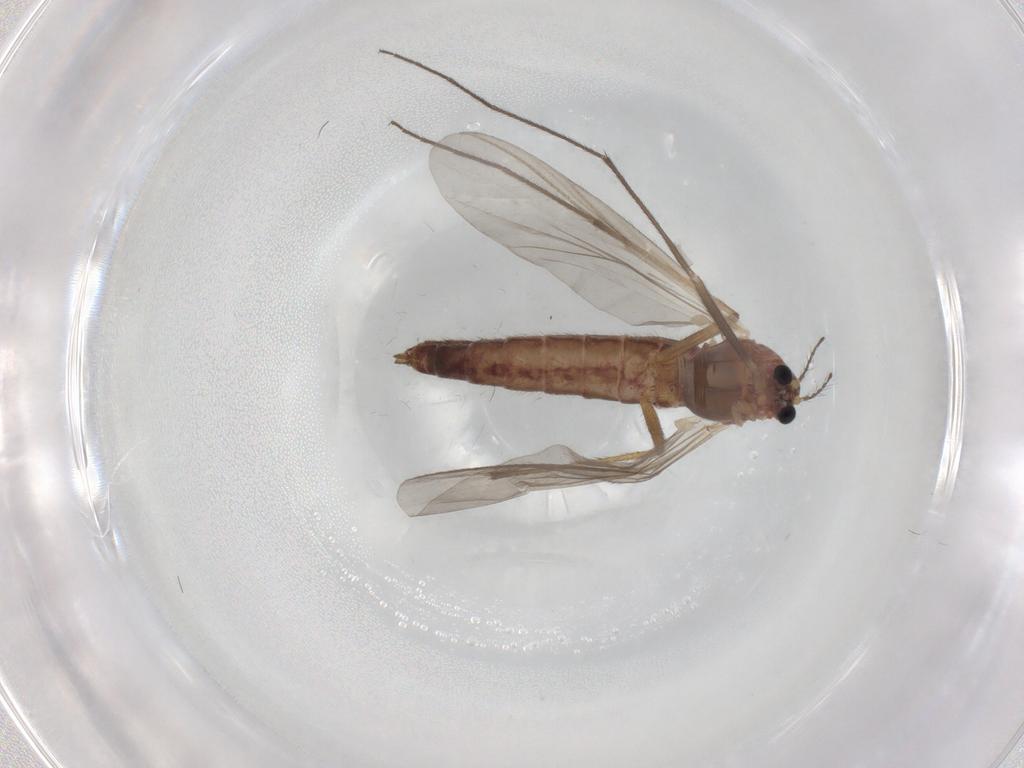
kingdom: Animalia
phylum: Arthropoda
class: Insecta
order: Diptera
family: Chironomidae
